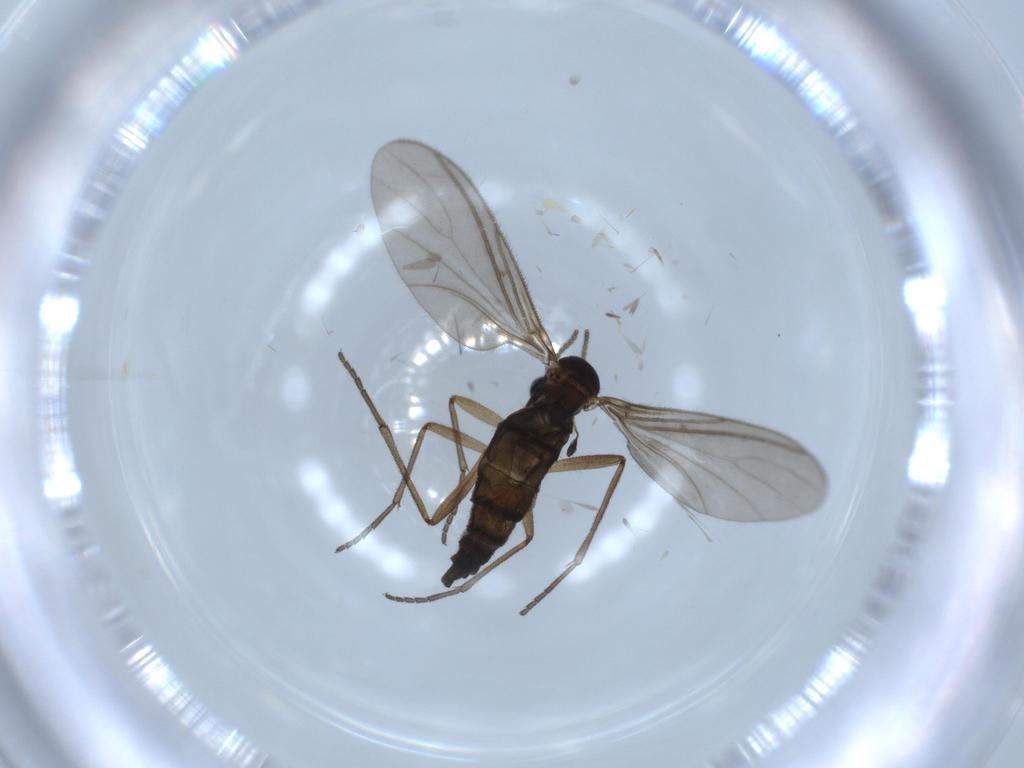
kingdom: Animalia
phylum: Arthropoda
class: Insecta
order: Diptera
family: Sciaridae
